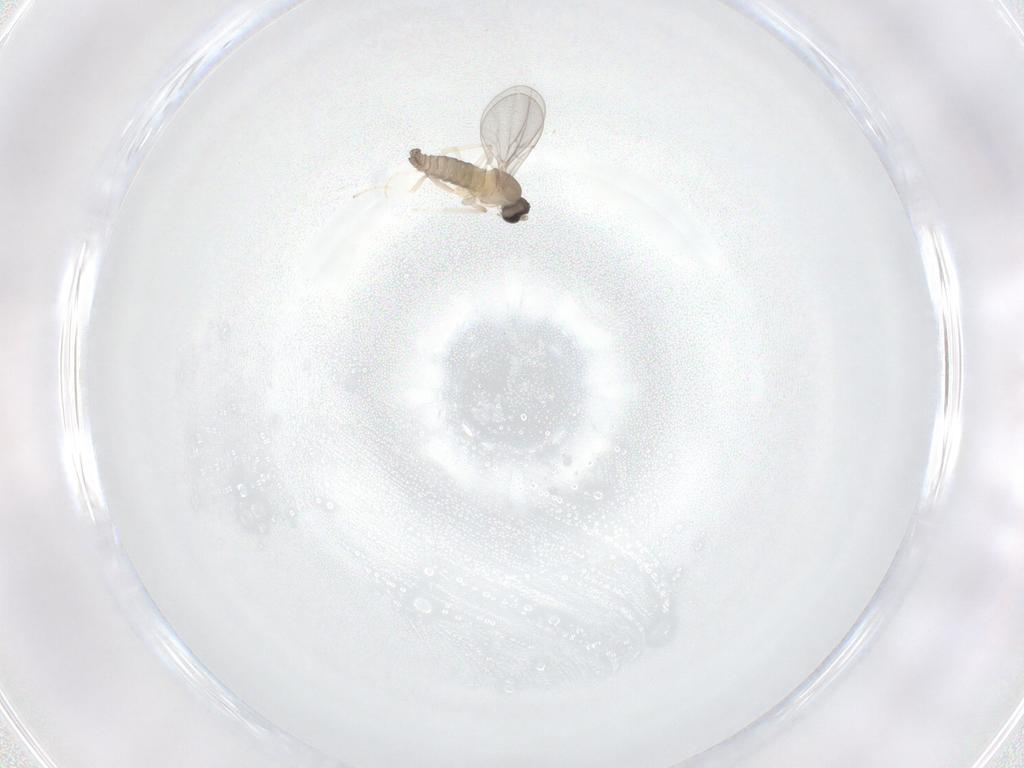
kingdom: Animalia
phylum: Arthropoda
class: Insecta
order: Diptera
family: Cecidomyiidae
